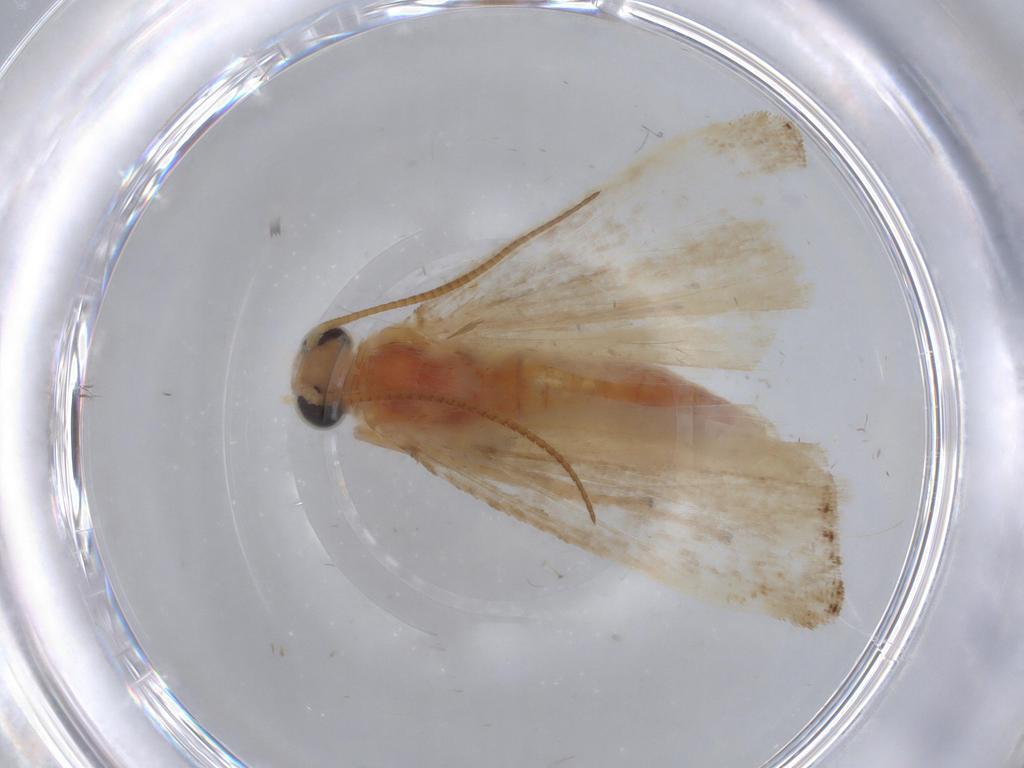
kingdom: Animalia
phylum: Arthropoda
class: Insecta
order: Lepidoptera
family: Pyralidae
